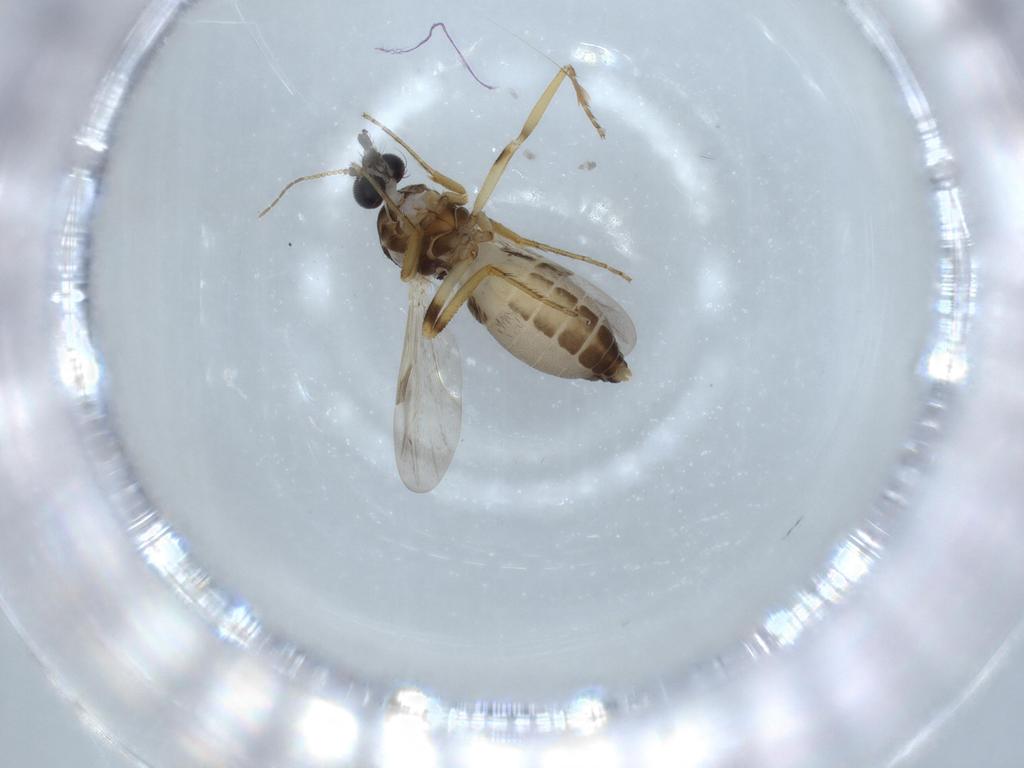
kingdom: Animalia
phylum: Arthropoda
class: Insecta
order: Diptera
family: Ceratopogonidae
